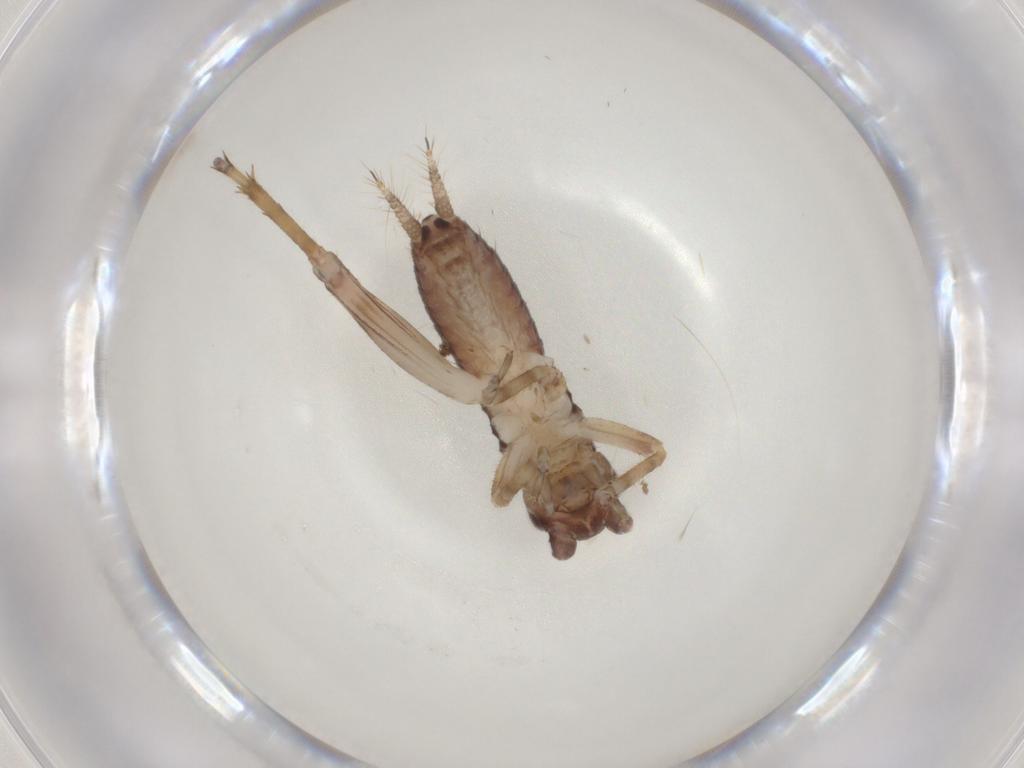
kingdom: Animalia
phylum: Arthropoda
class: Insecta
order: Orthoptera
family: Gryllidae
